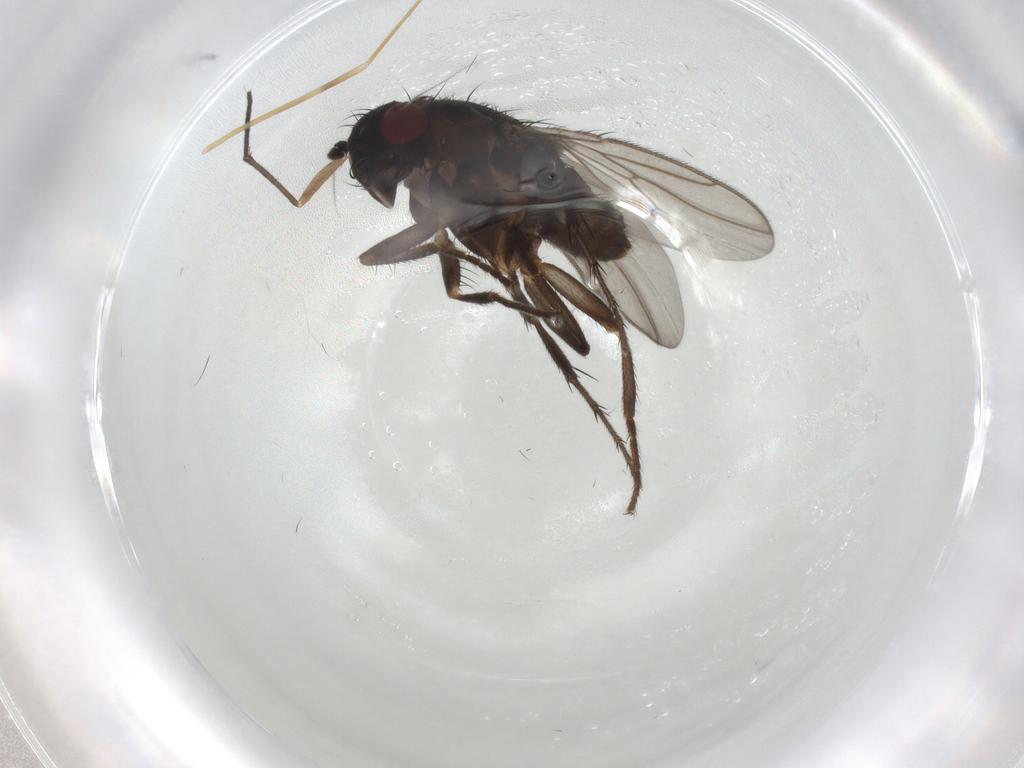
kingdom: Animalia
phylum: Arthropoda
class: Insecta
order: Diptera
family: Sphaeroceridae
